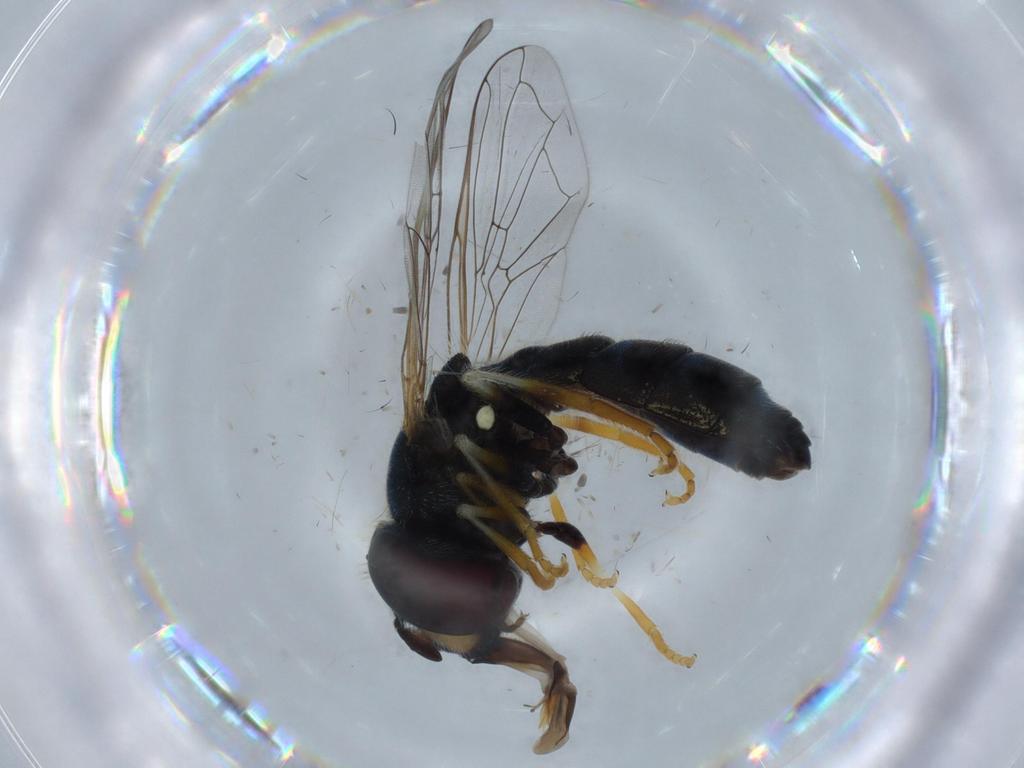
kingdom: Animalia
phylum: Arthropoda
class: Insecta
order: Diptera
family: Syrphidae
